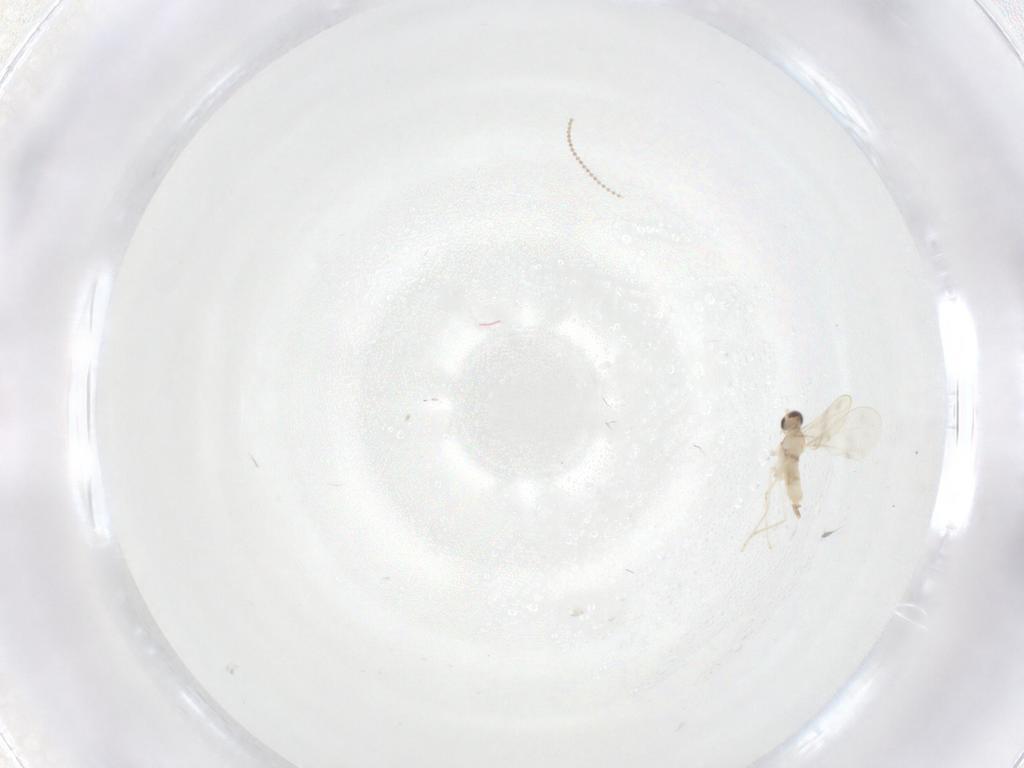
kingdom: Animalia
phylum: Arthropoda
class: Insecta
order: Diptera
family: Cecidomyiidae
